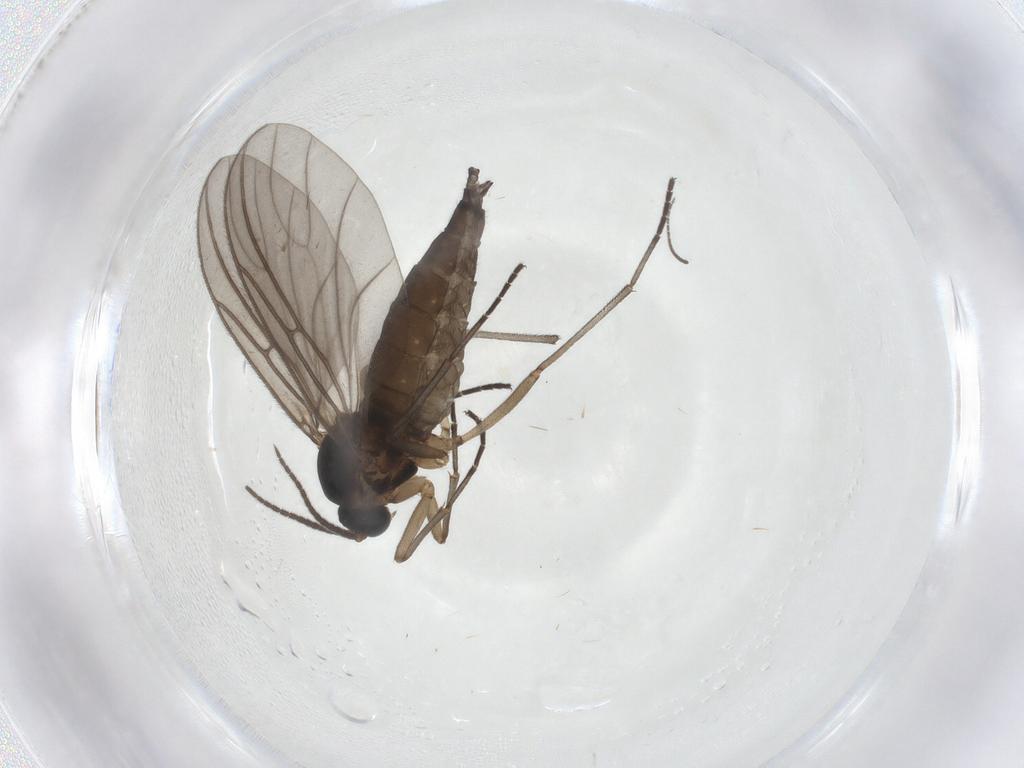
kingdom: Animalia
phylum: Arthropoda
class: Insecta
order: Diptera
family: Sciaridae
